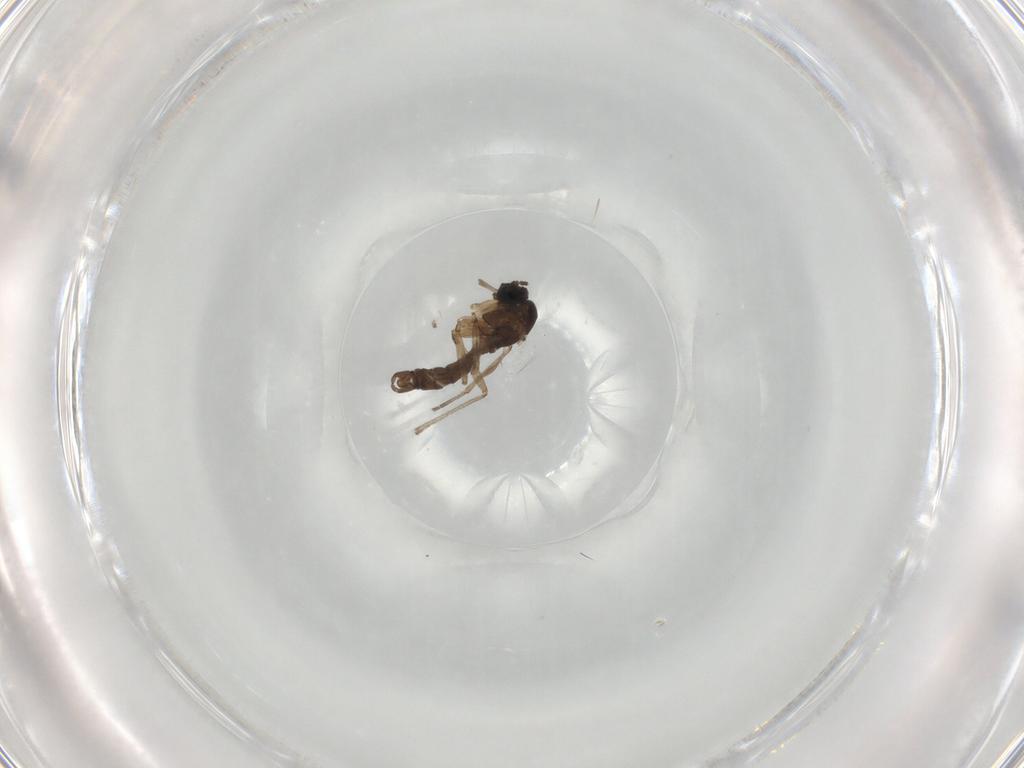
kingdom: Animalia
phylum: Arthropoda
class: Insecta
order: Diptera
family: Sciaridae
